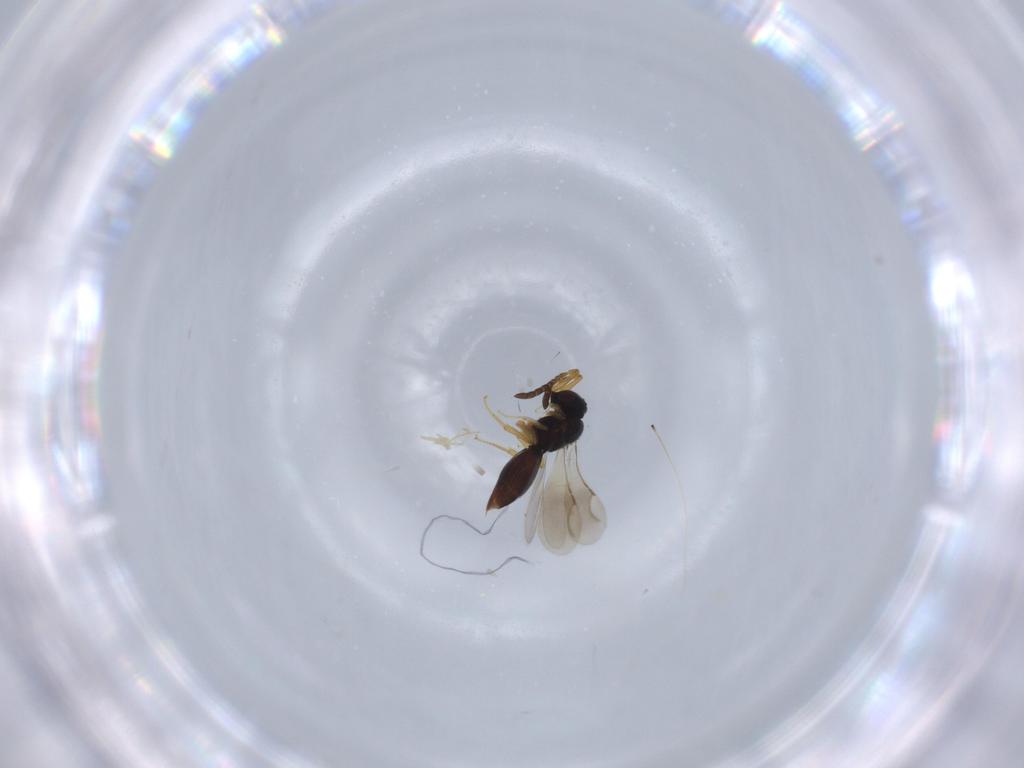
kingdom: Animalia
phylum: Arthropoda
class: Insecta
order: Hymenoptera
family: Ceraphronidae
